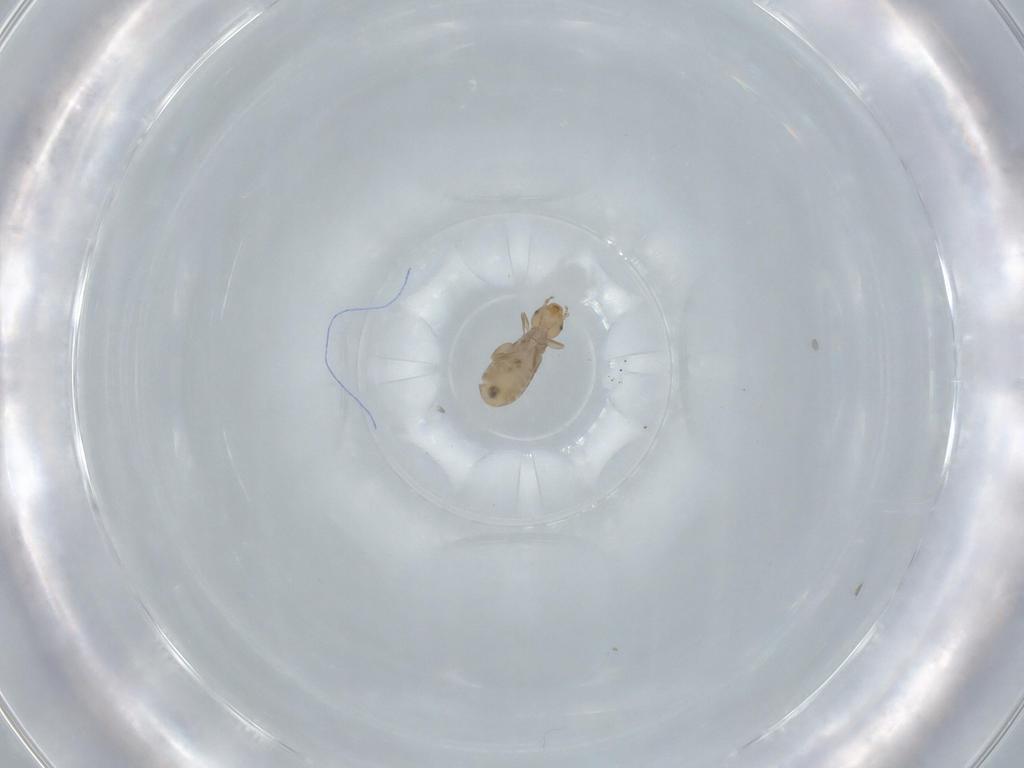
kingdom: Animalia
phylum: Arthropoda
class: Insecta
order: Psocodea
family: Liposcelididae
